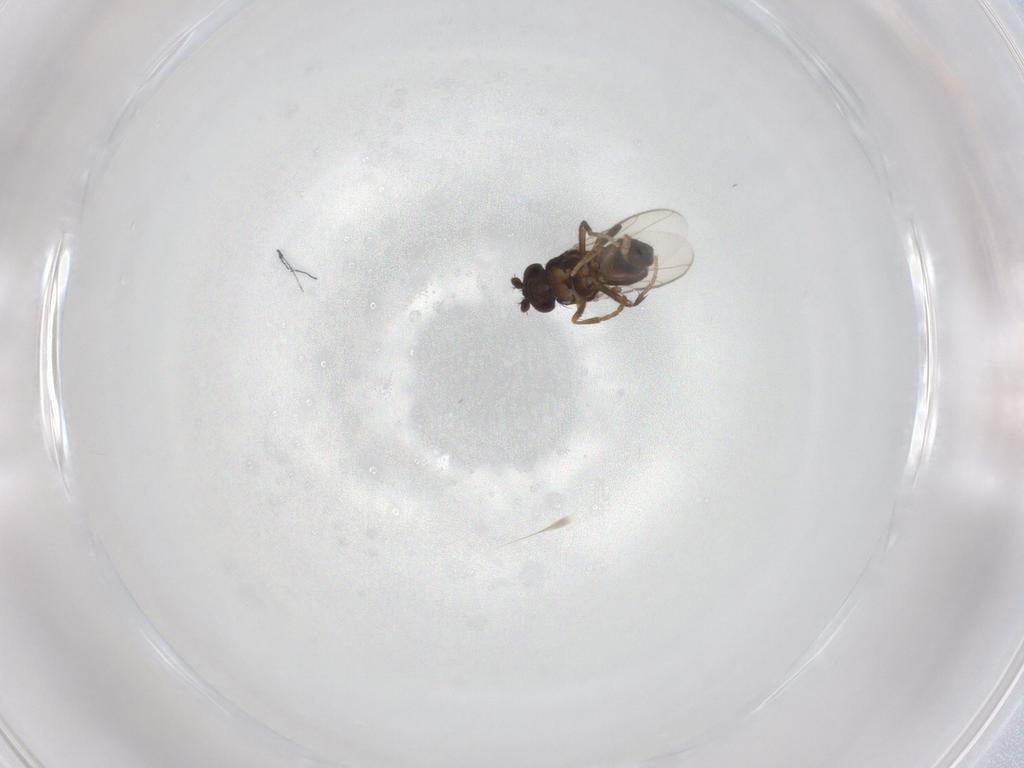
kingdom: Animalia
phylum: Arthropoda
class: Insecta
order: Diptera
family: Sphaeroceridae
